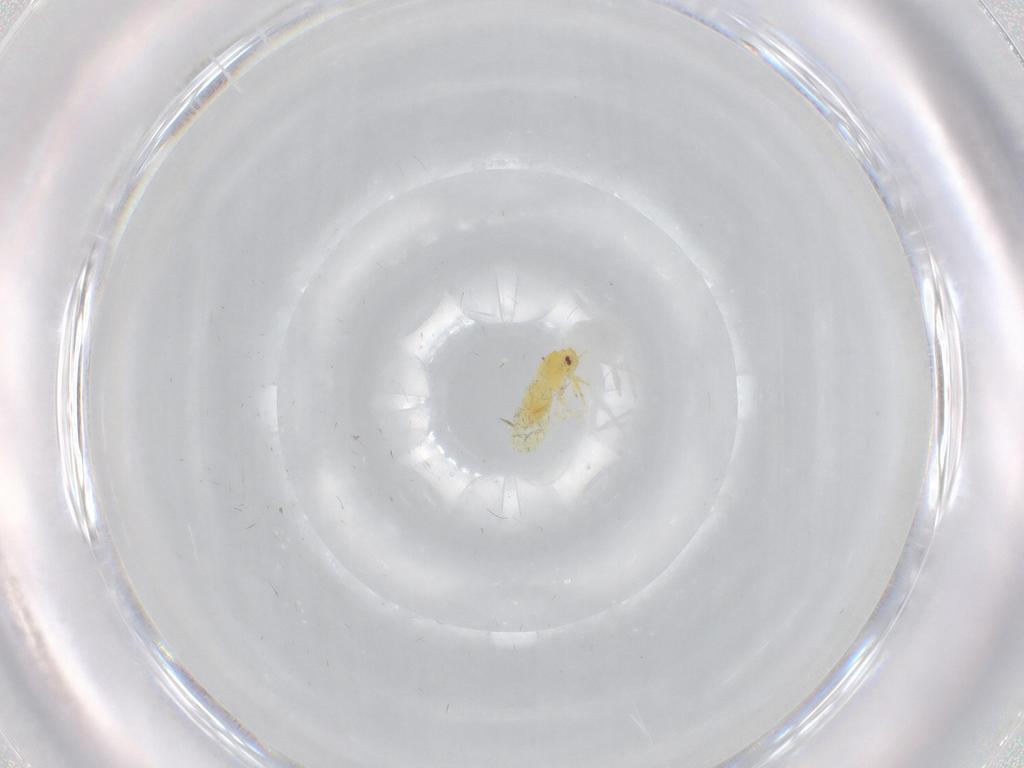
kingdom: Animalia
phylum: Arthropoda
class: Insecta
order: Hemiptera
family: Aleyrodidae
